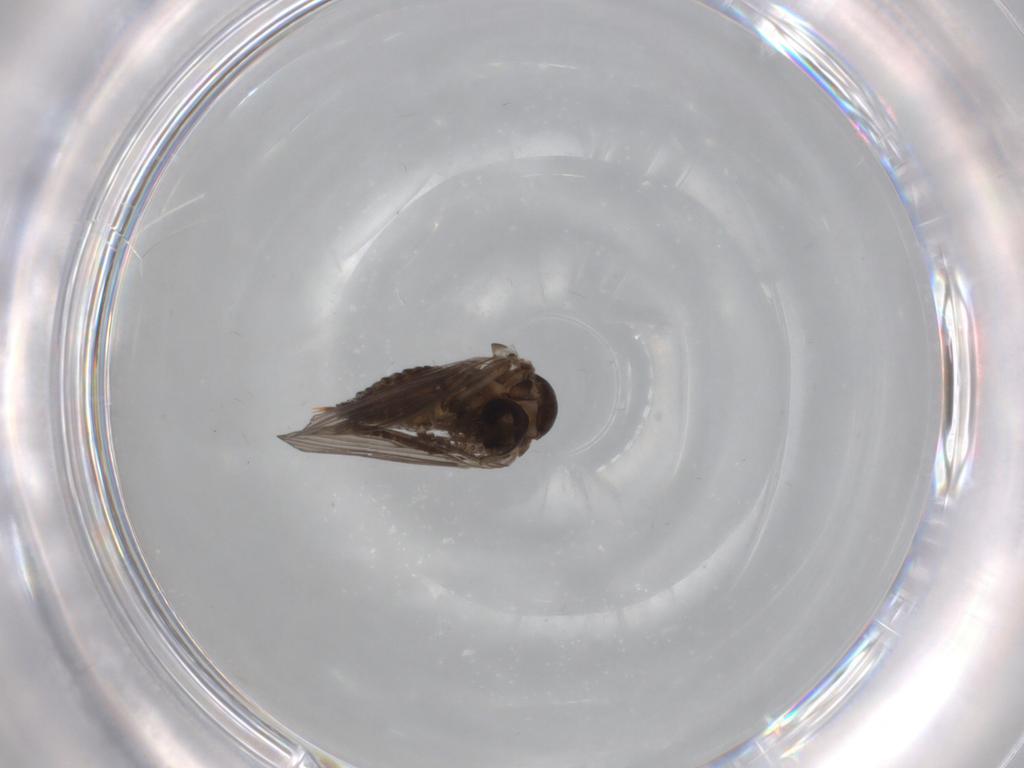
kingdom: Animalia
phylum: Arthropoda
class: Insecta
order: Diptera
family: Psychodidae
